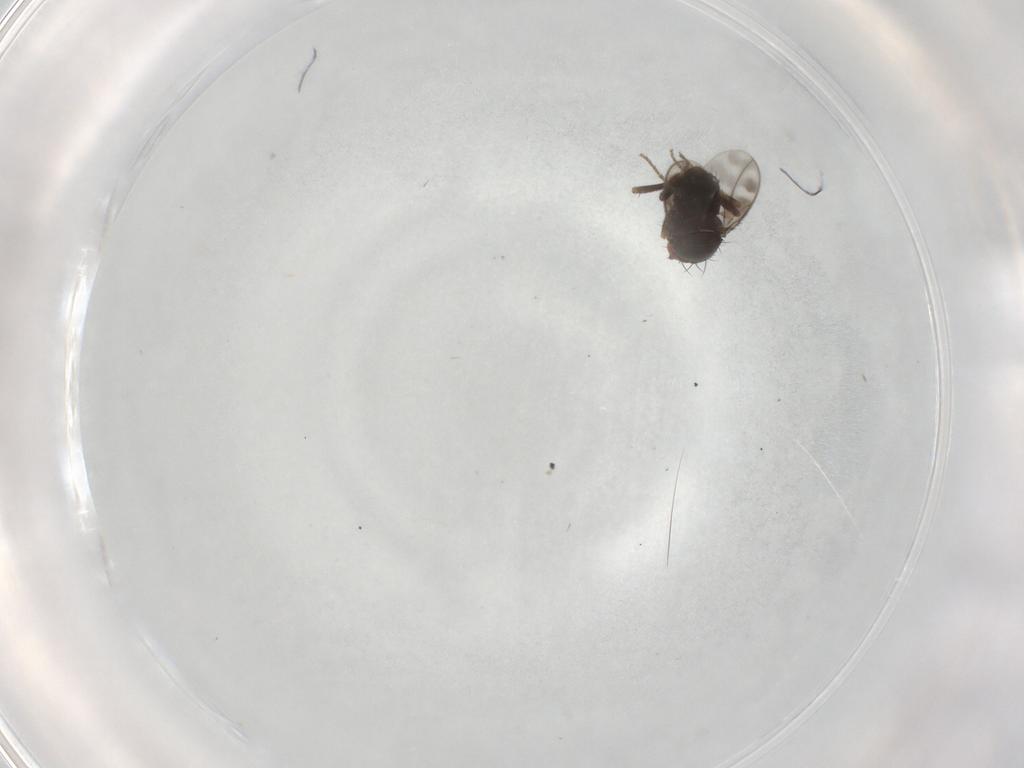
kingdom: Animalia
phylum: Arthropoda
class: Insecta
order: Diptera
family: Sphaeroceridae
